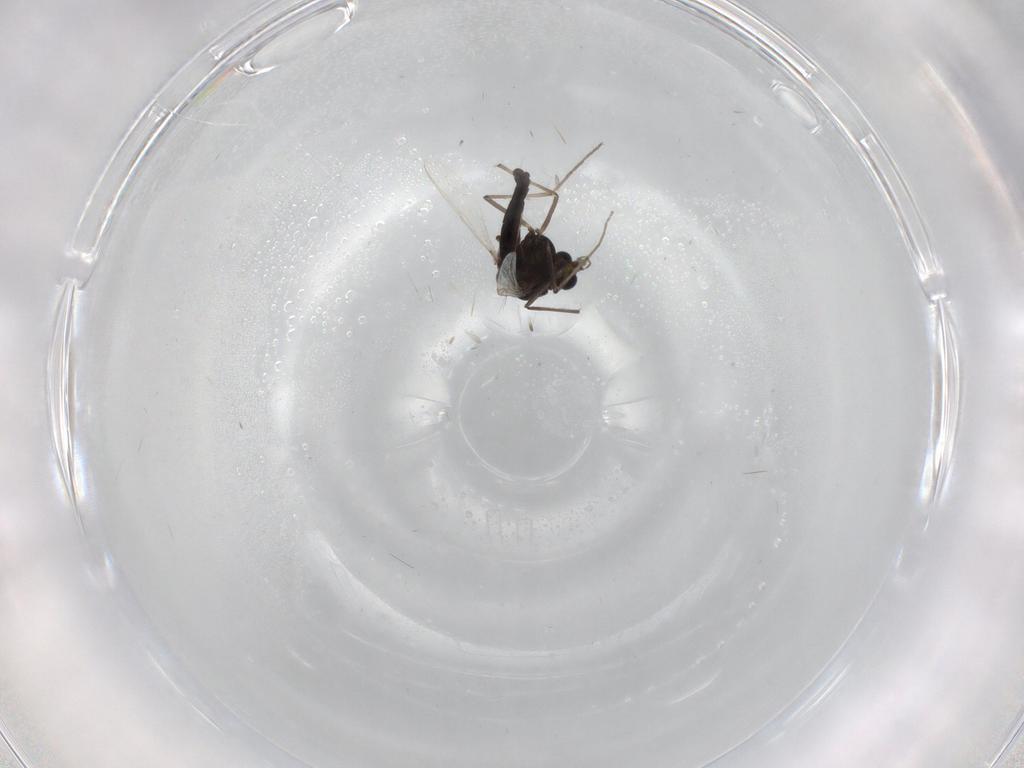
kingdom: Animalia
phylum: Arthropoda
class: Insecta
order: Diptera
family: Chironomidae
